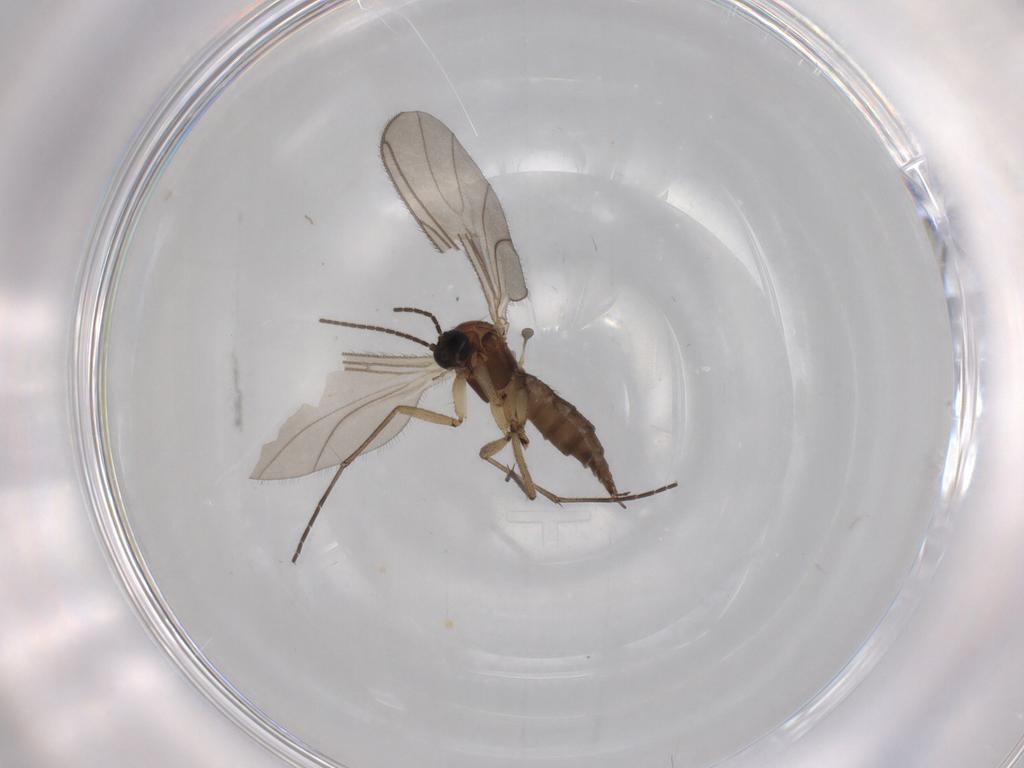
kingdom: Animalia
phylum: Arthropoda
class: Insecta
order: Diptera
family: Sciaridae
